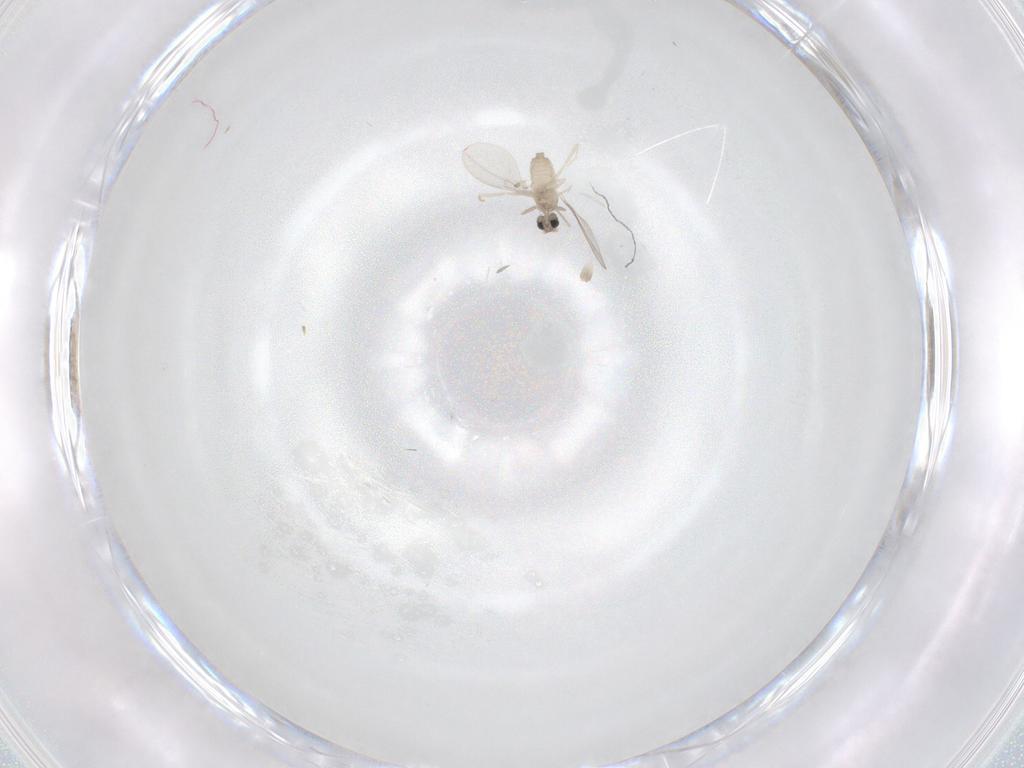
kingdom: Animalia
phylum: Arthropoda
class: Insecta
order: Diptera
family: Cecidomyiidae
